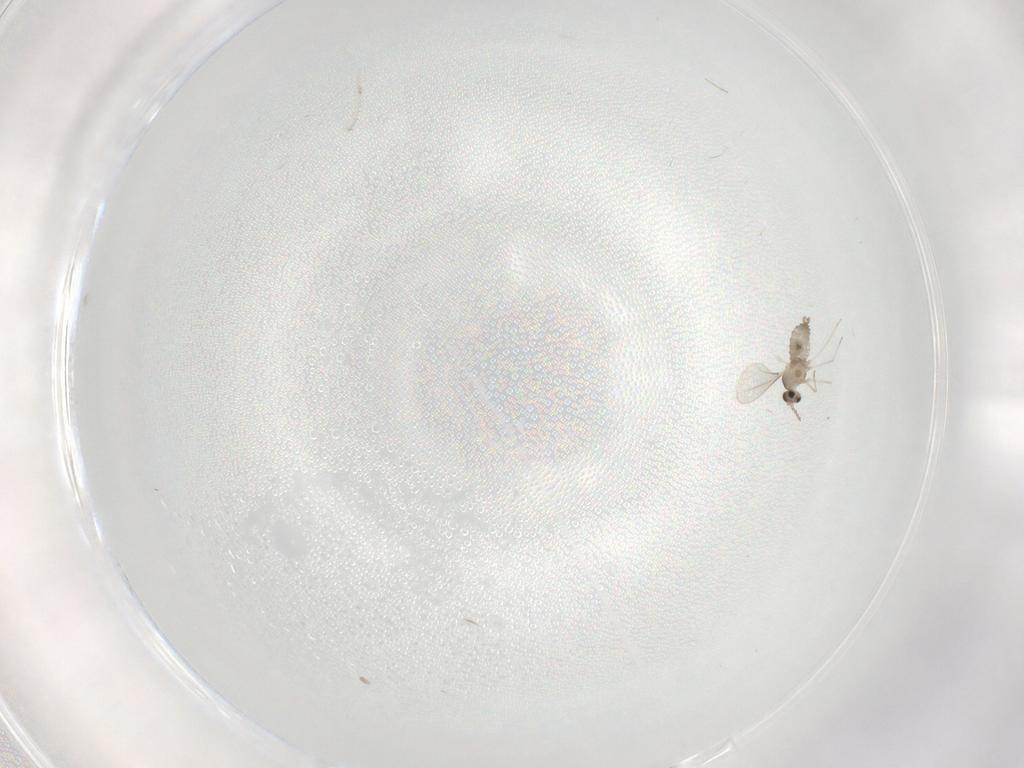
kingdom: Animalia
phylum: Arthropoda
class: Insecta
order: Diptera
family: Cecidomyiidae
